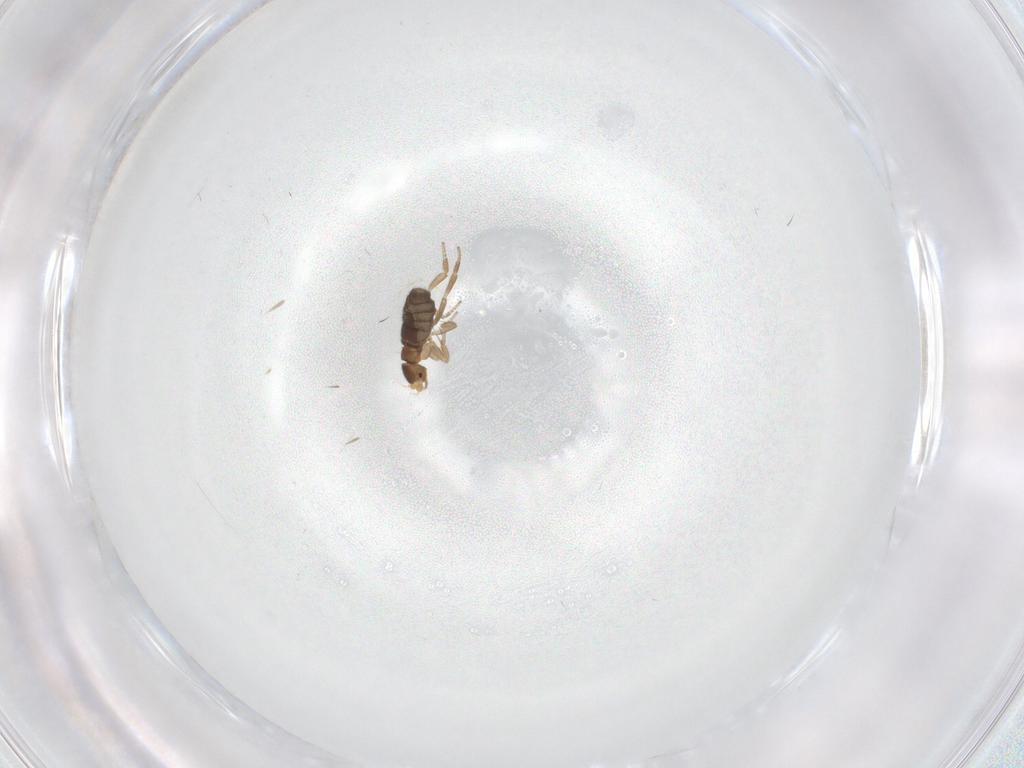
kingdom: Animalia
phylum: Arthropoda
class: Insecta
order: Diptera
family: Phoridae
